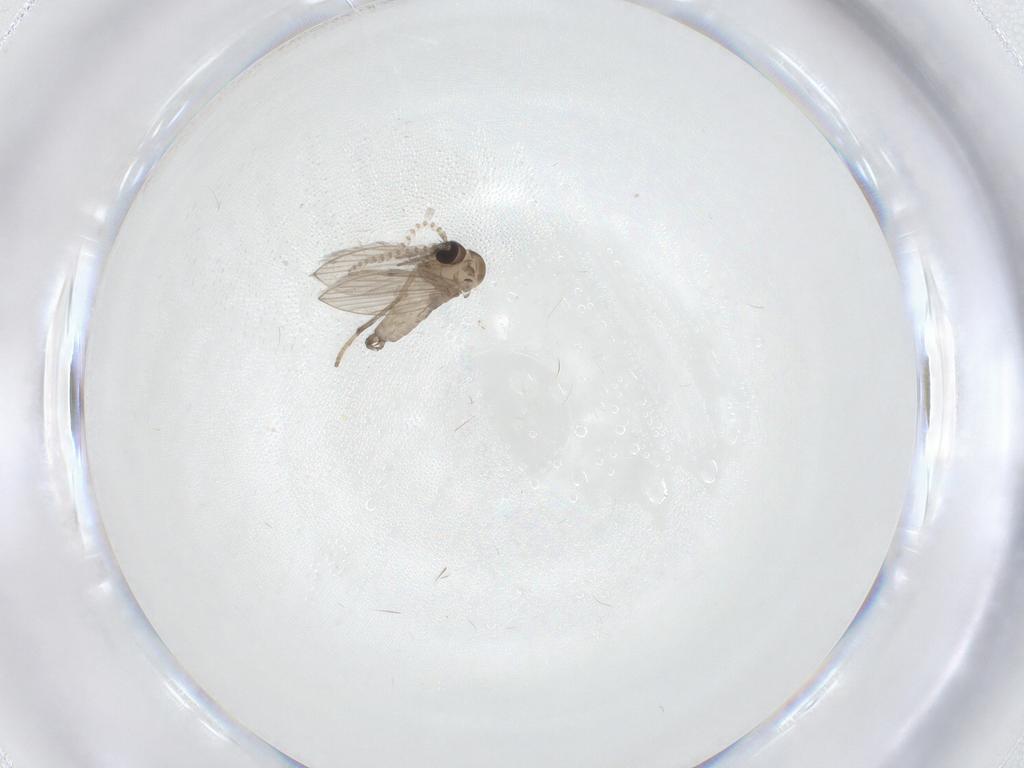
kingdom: Animalia
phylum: Arthropoda
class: Insecta
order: Diptera
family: Psychodidae
